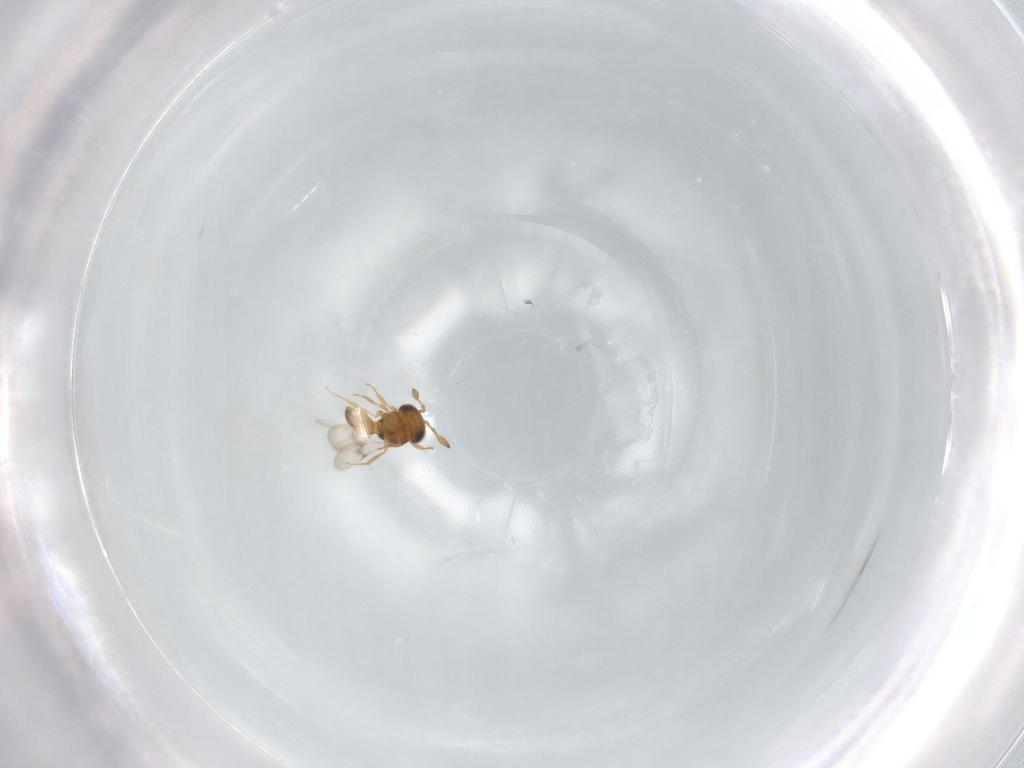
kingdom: Animalia
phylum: Arthropoda
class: Insecta
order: Hymenoptera
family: Scelionidae
